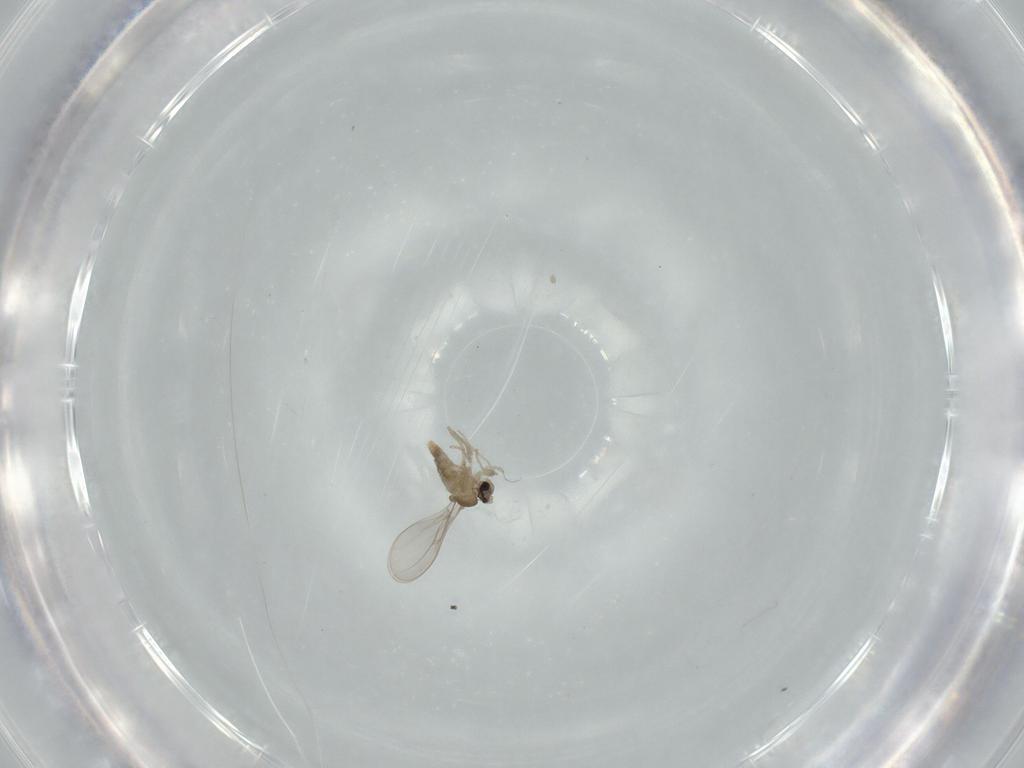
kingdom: Animalia
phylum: Arthropoda
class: Insecta
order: Diptera
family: Cecidomyiidae
